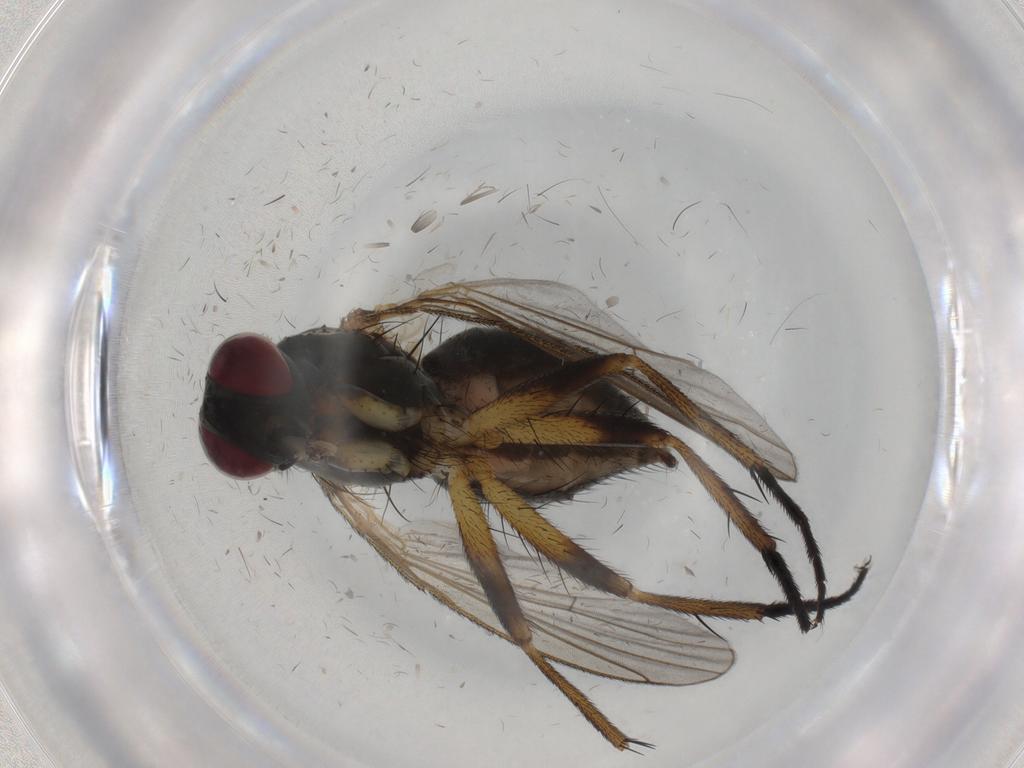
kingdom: Animalia
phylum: Arthropoda
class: Insecta
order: Diptera
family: Chironomidae
